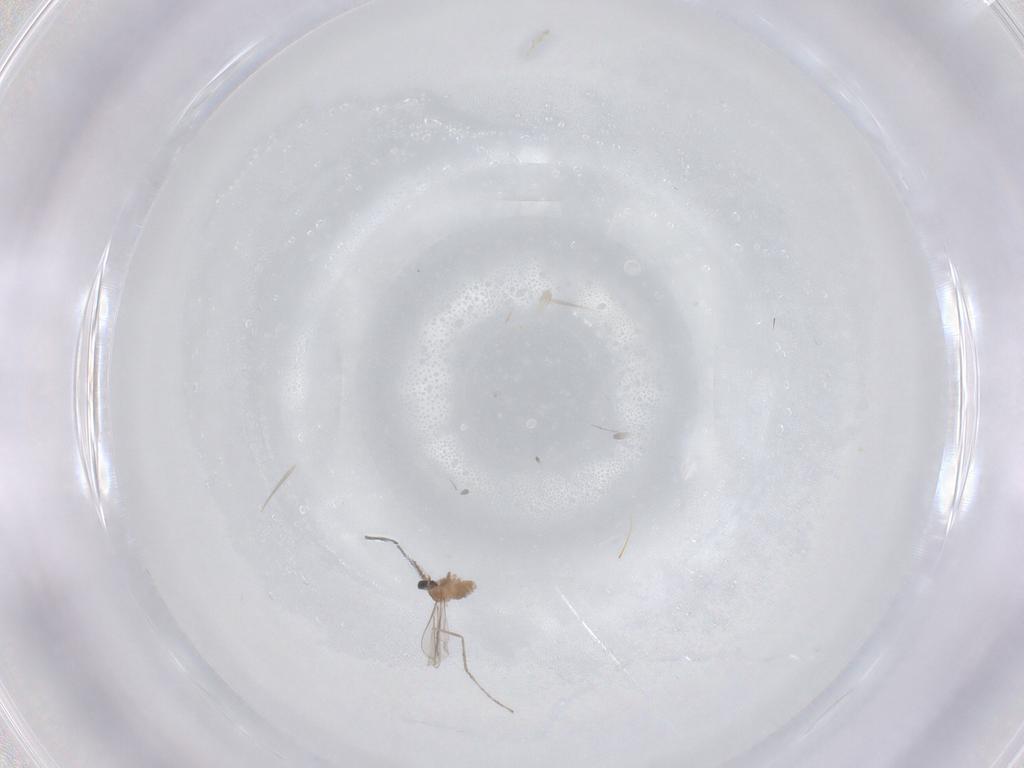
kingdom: Animalia
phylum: Arthropoda
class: Insecta
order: Diptera
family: Cecidomyiidae
